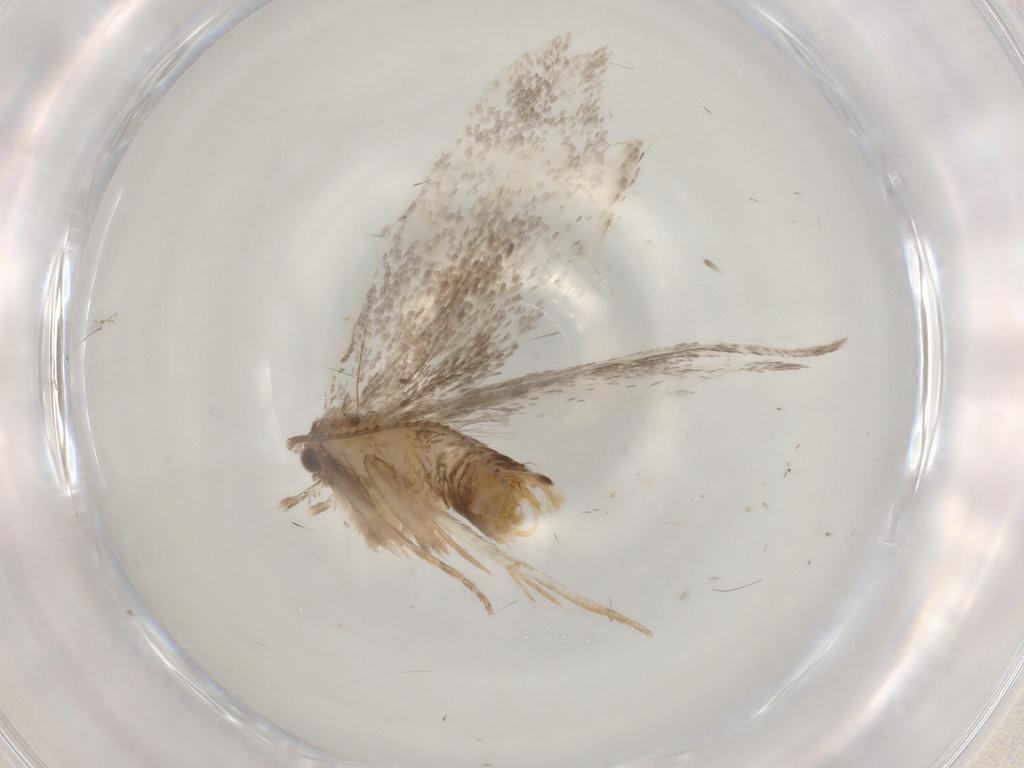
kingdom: Animalia
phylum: Arthropoda
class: Insecta
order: Lepidoptera
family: Dryadaulidae
